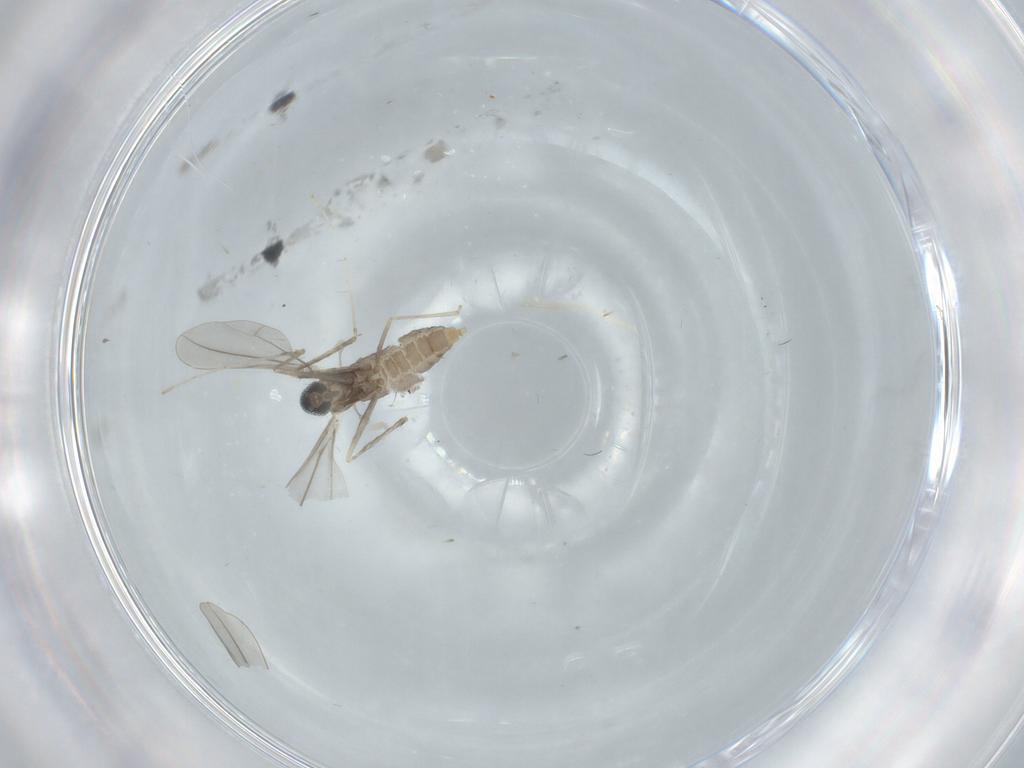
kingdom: Animalia
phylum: Arthropoda
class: Insecta
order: Diptera
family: Cecidomyiidae
